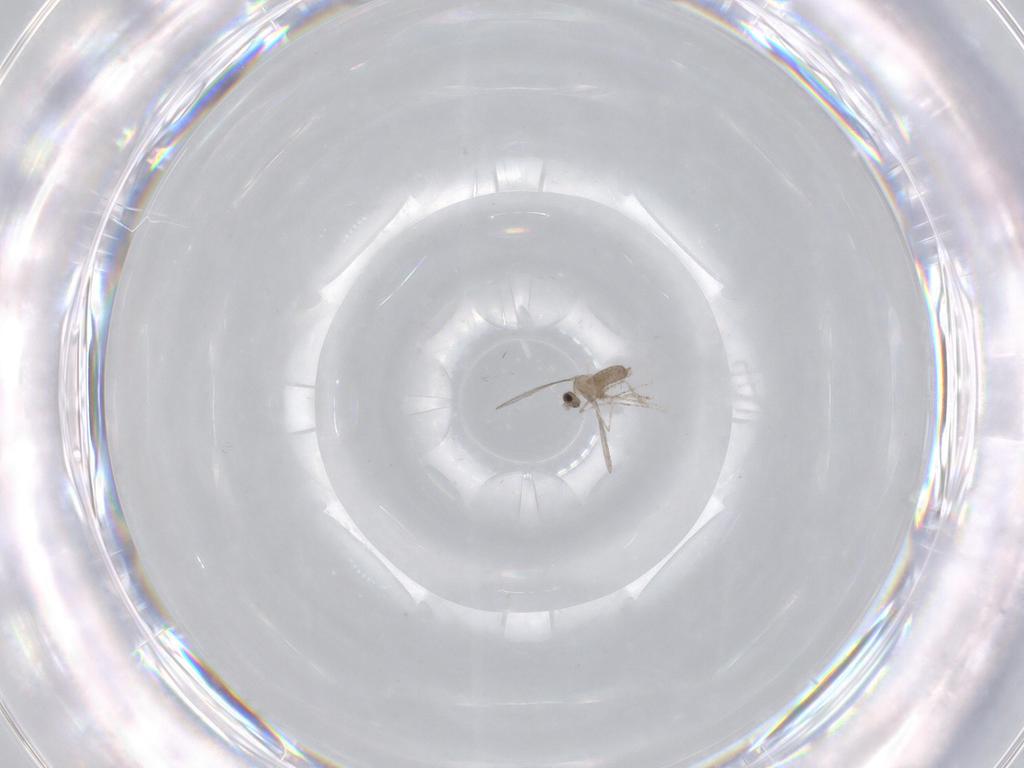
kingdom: Animalia
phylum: Arthropoda
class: Insecta
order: Diptera
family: Cecidomyiidae
